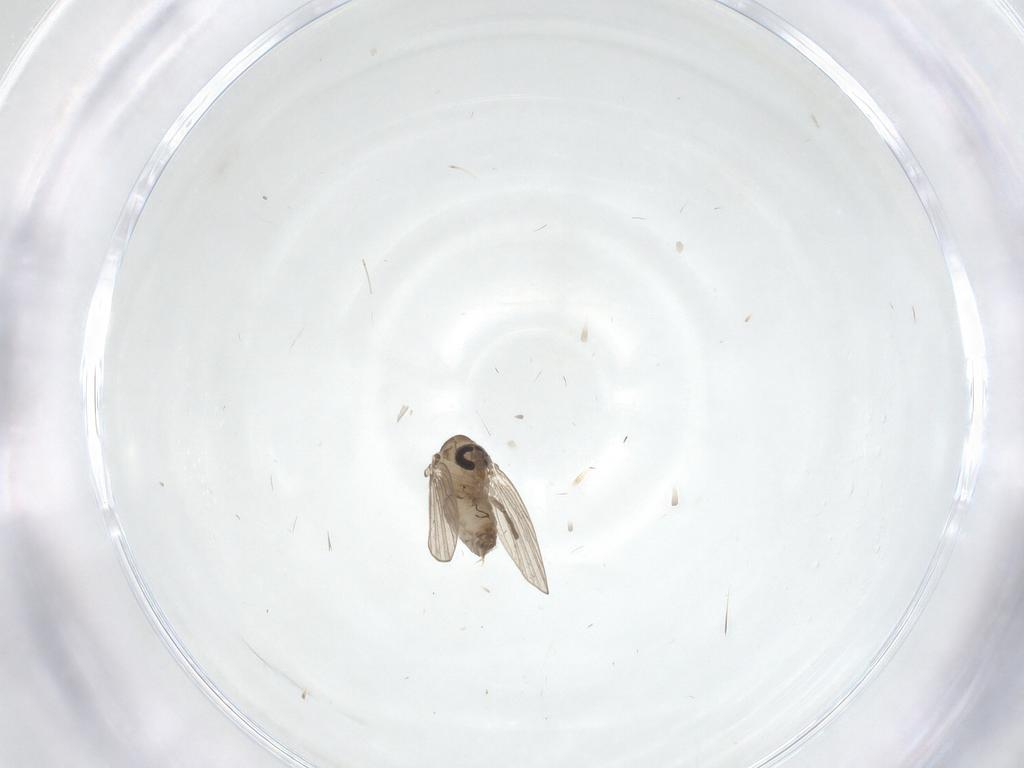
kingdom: Animalia
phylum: Arthropoda
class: Insecta
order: Diptera
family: Psychodidae
